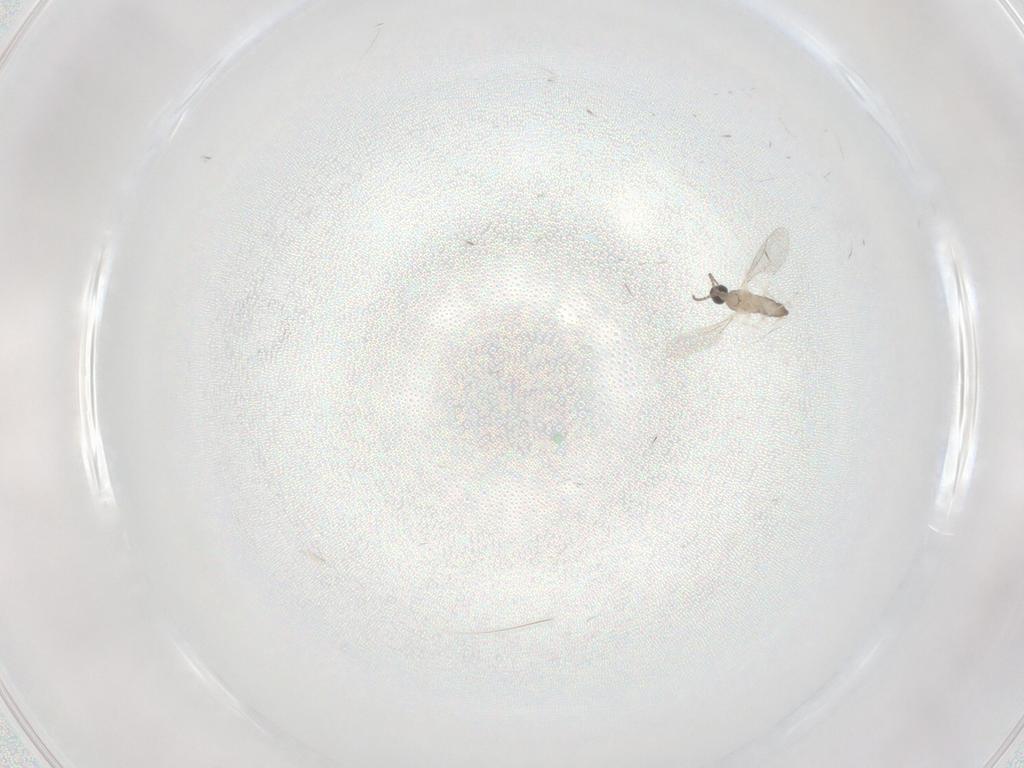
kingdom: Animalia
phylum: Arthropoda
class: Insecta
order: Diptera
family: Cecidomyiidae
